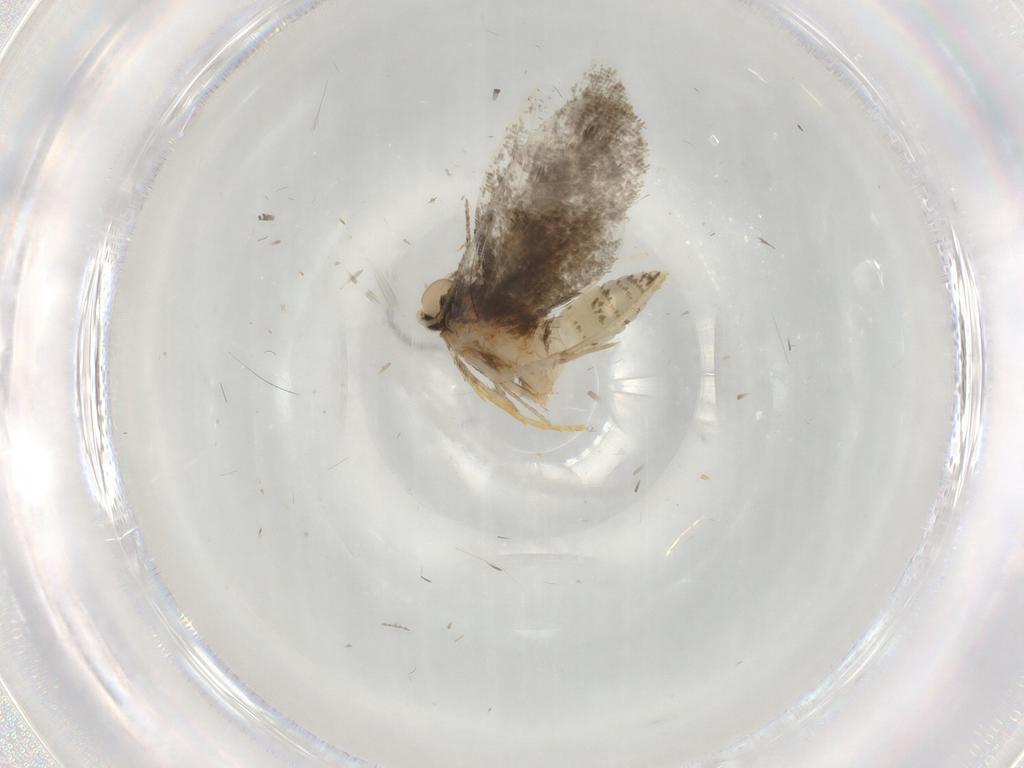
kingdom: Animalia
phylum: Arthropoda
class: Insecta
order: Lepidoptera
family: Psychidae
